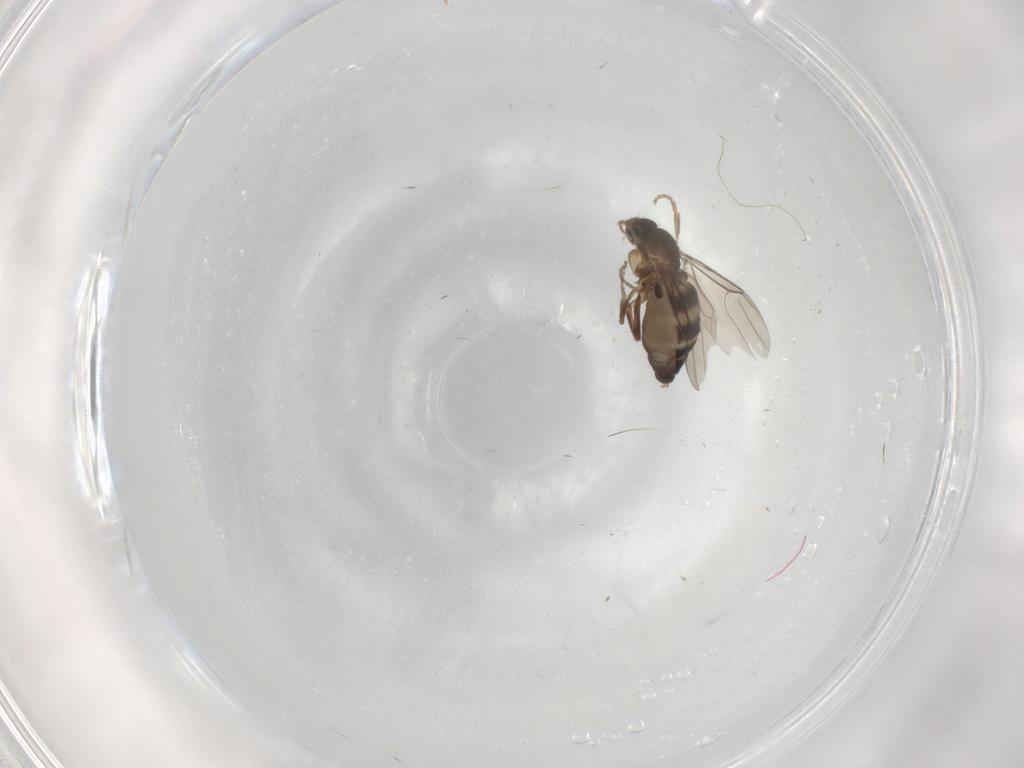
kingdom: Animalia
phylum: Arthropoda
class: Insecta
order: Diptera
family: Phoridae
